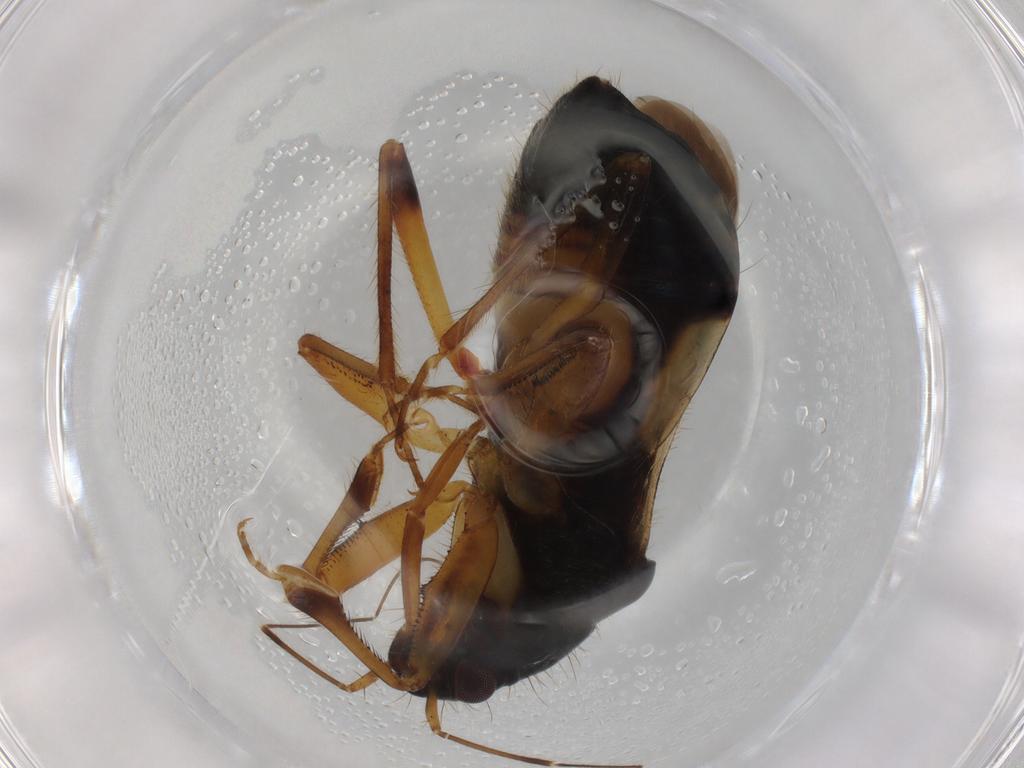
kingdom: Animalia
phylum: Arthropoda
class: Insecta
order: Hemiptera
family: Nabidae
